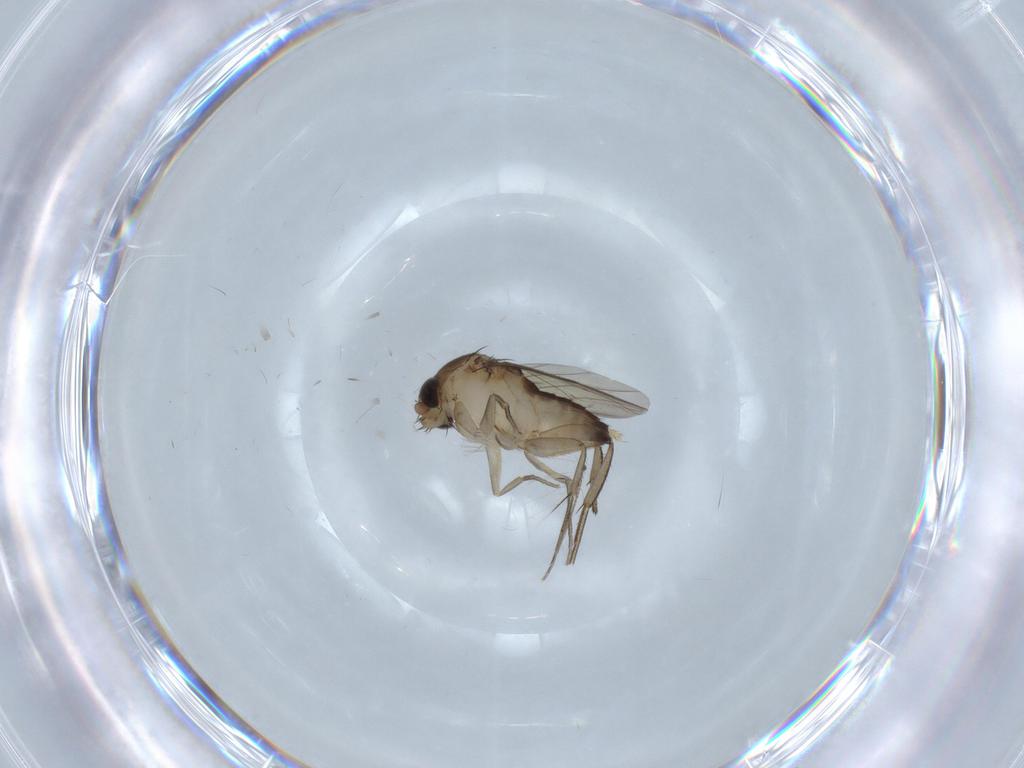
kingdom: Animalia
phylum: Arthropoda
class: Insecta
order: Diptera
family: Chironomidae
